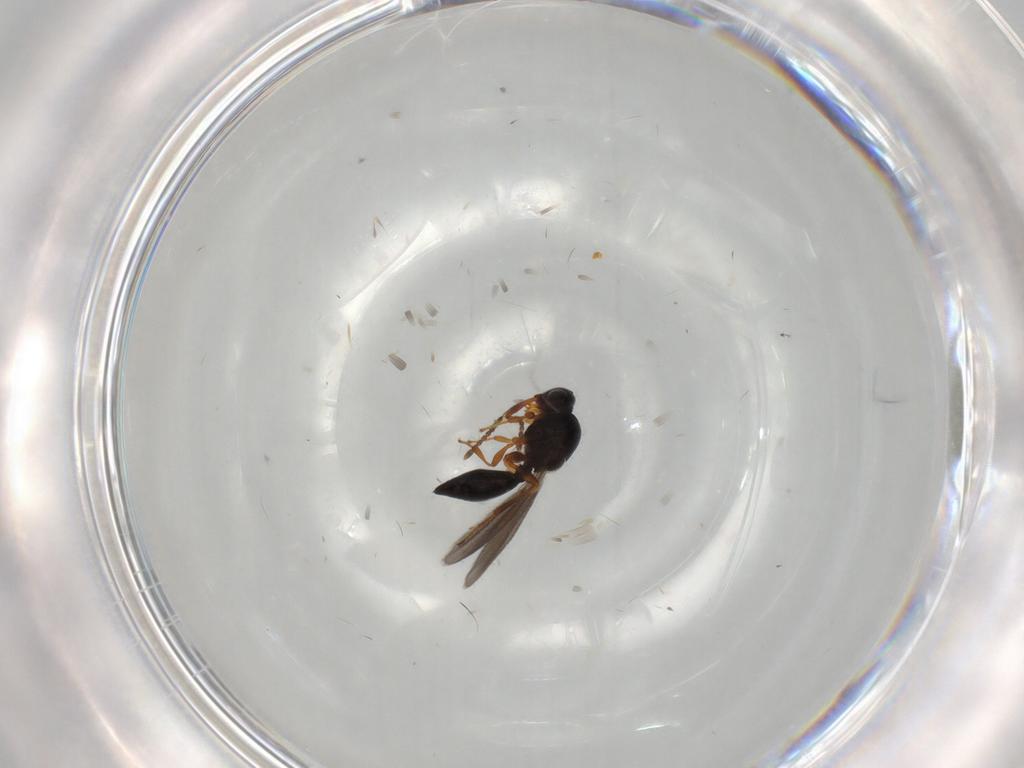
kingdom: Animalia
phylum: Arthropoda
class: Insecta
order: Hymenoptera
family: Platygastridae
